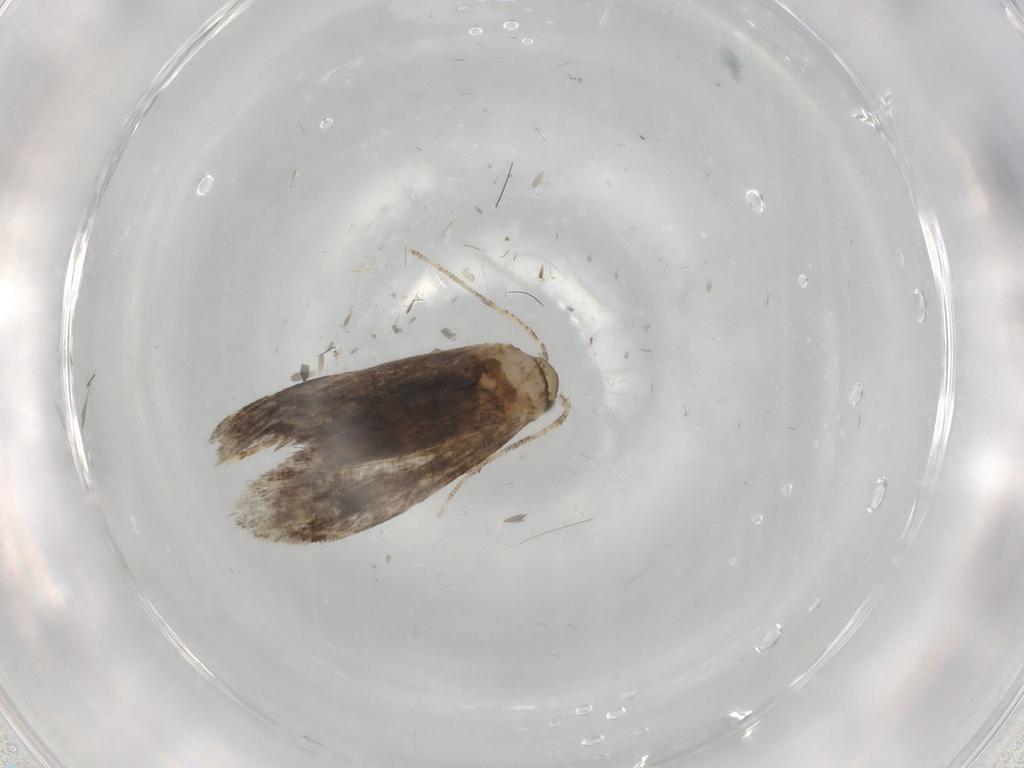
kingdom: Animalia
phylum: Arthropoda
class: Insecta
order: Lepidoptera
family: Tineidae
